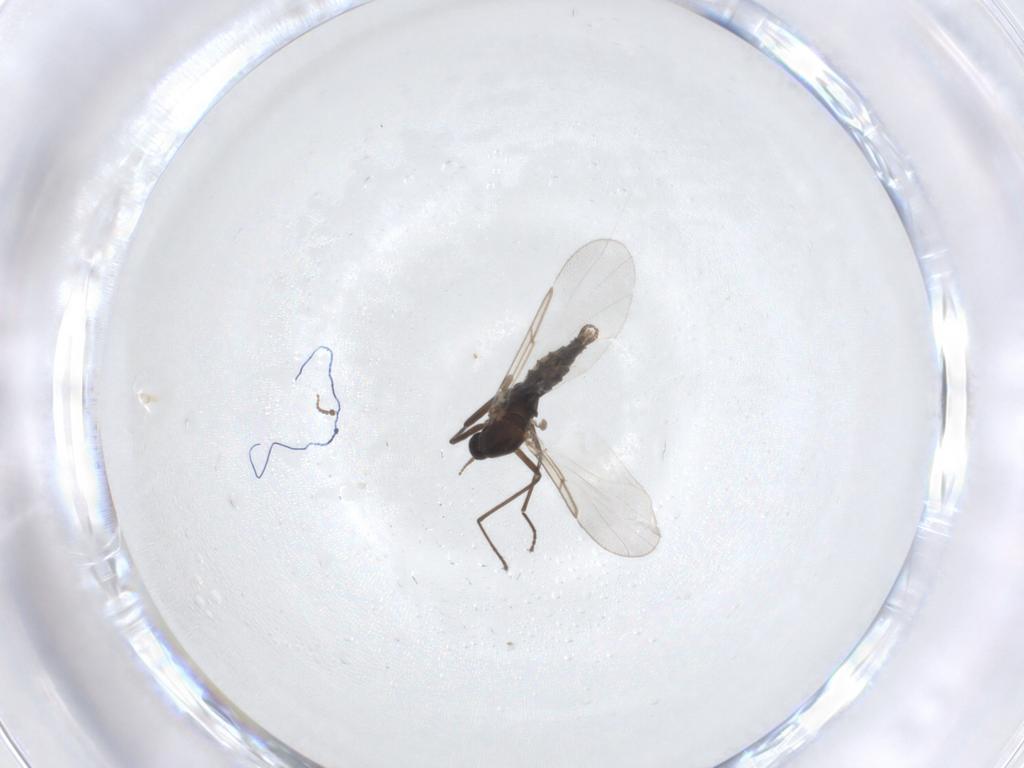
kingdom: Animalia
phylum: Arthropoda
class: Insecta
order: Diptera
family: Cecidomyiidae
